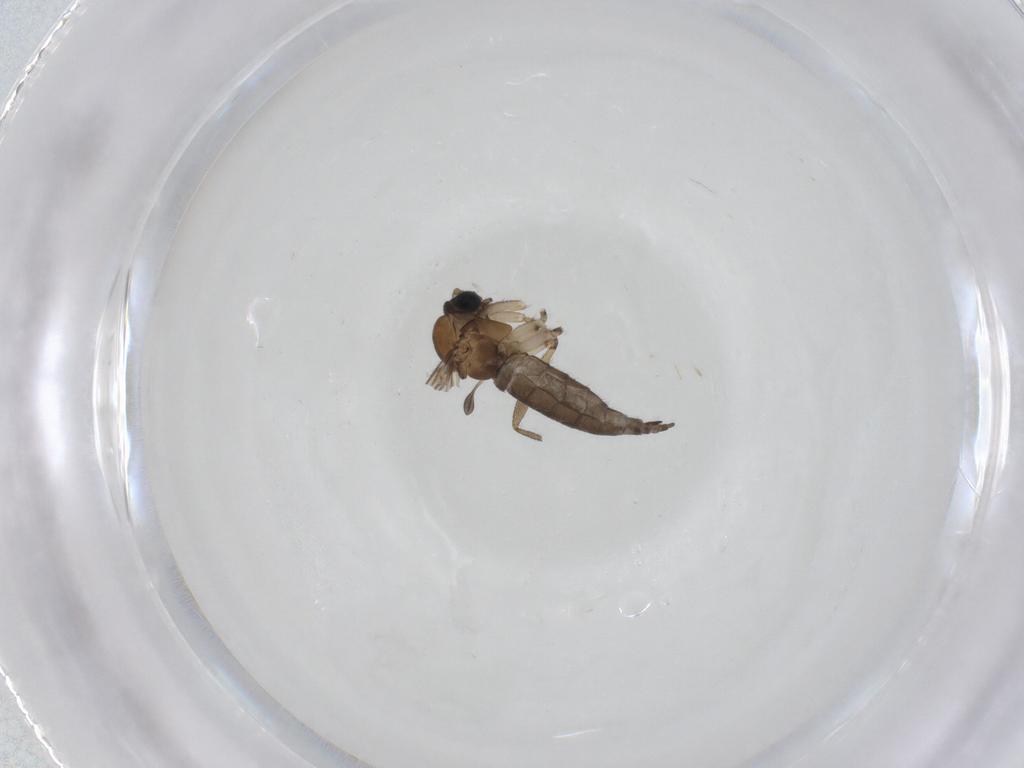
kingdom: Animalia
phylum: Arthropoda
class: Insecta
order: Diptera
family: Sciaridae
